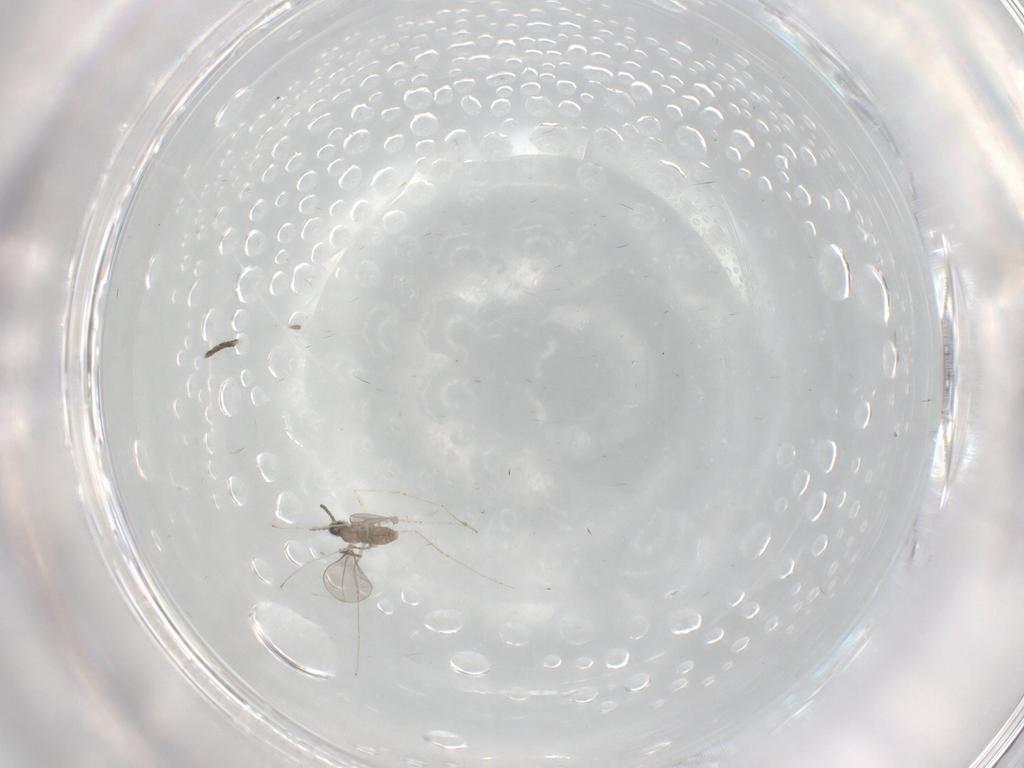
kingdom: Animalia
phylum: Arthropoda
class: Insecta
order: Diptera
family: Psychodidae
